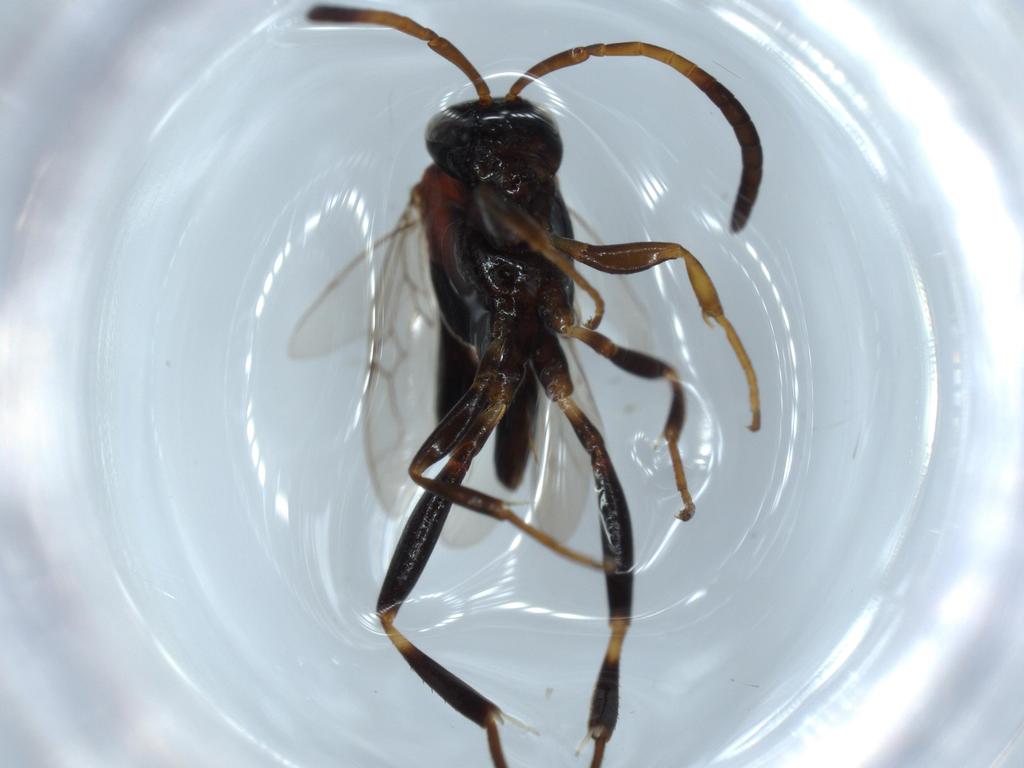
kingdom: Animalia
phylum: Arthropoda
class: Insecta
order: Hymenoptera
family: Evaniidae
